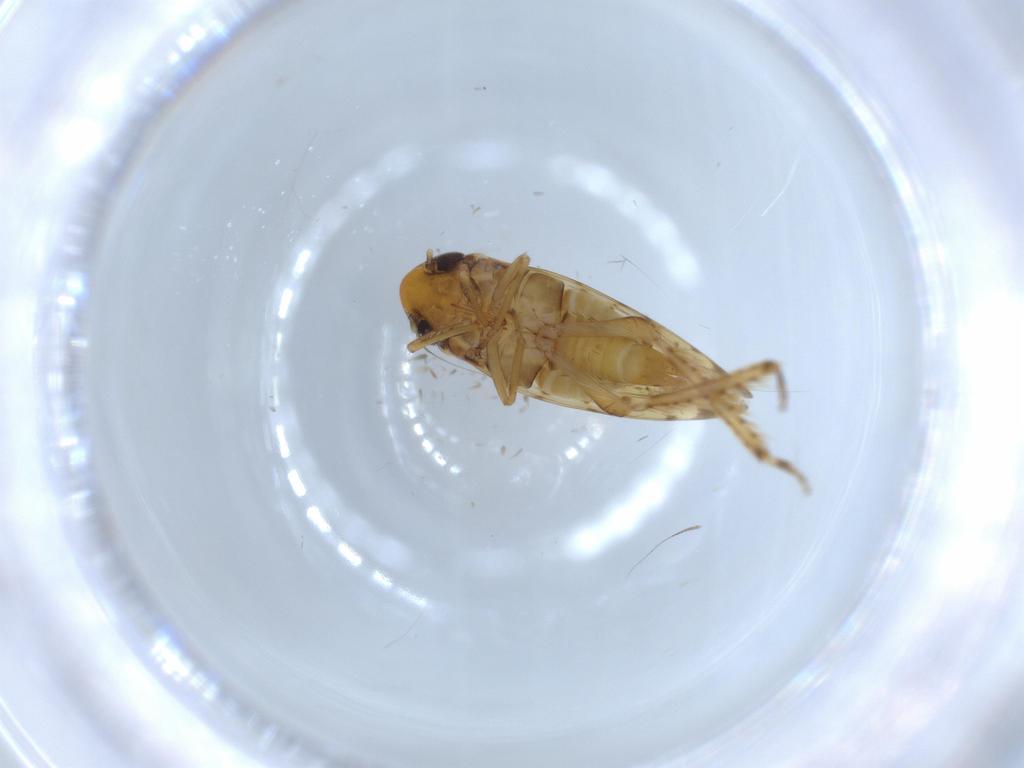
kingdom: Animalia
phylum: Arthropoda
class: Insecta
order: Hemiptera
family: Cicadellidae
